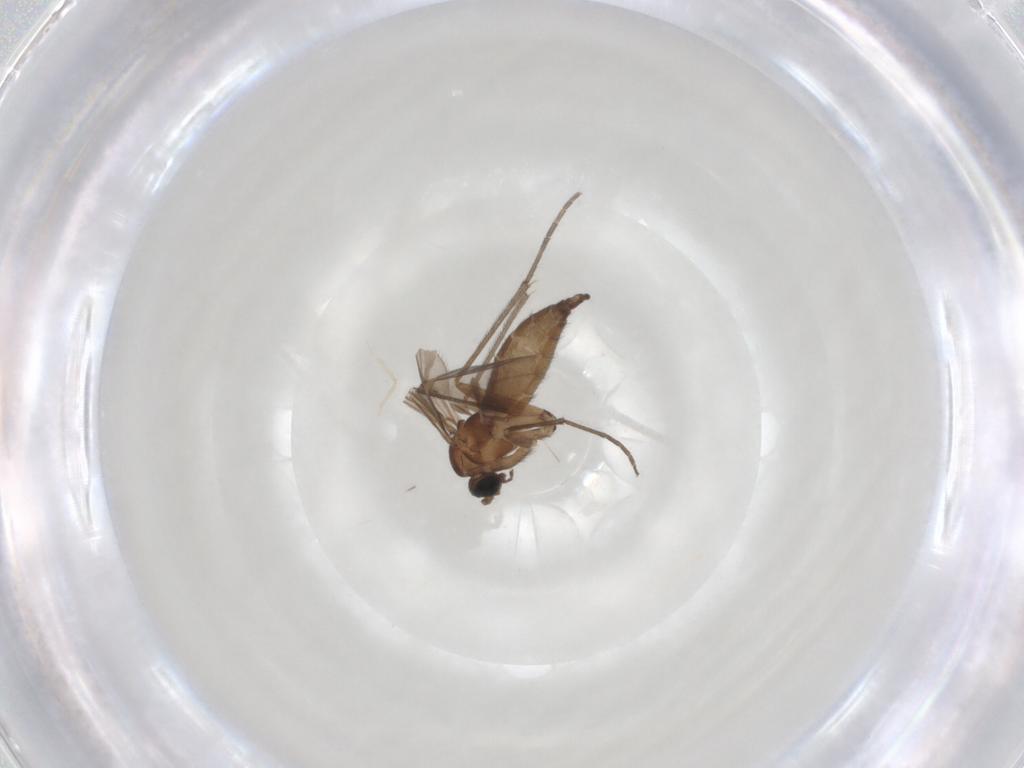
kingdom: Animalia
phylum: Arthropoda
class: Insecta
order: Diptera
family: Sciaridae
